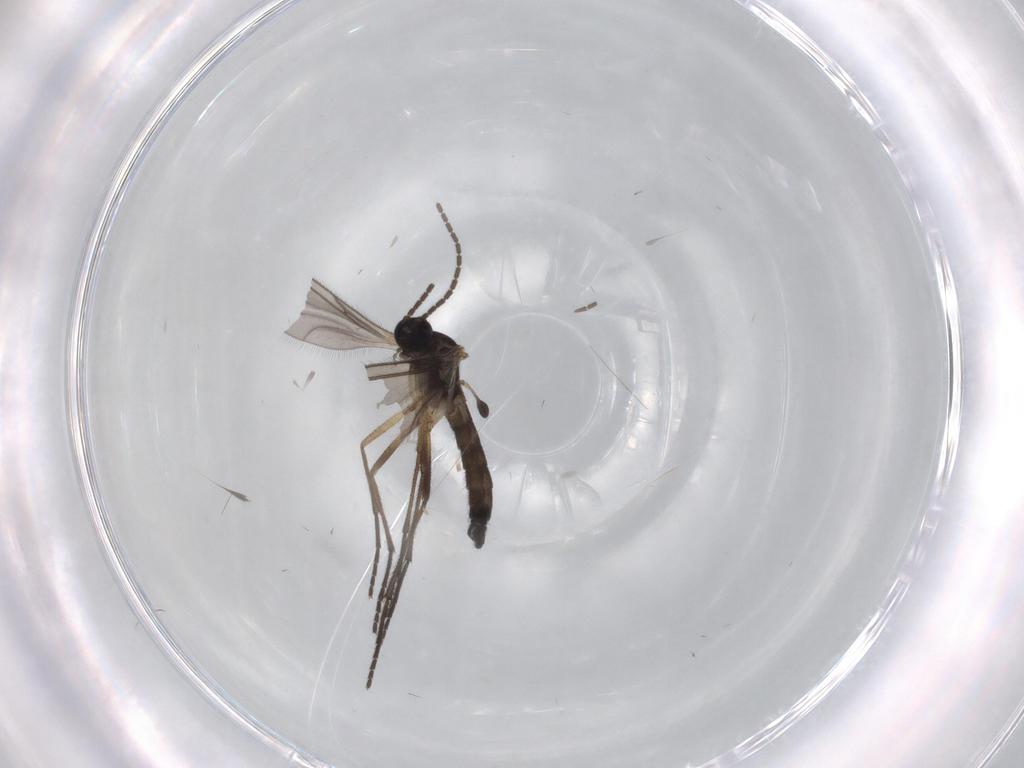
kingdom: Animalia
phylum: Arthropoda
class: Insecta
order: Diptera
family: Sciaridae
